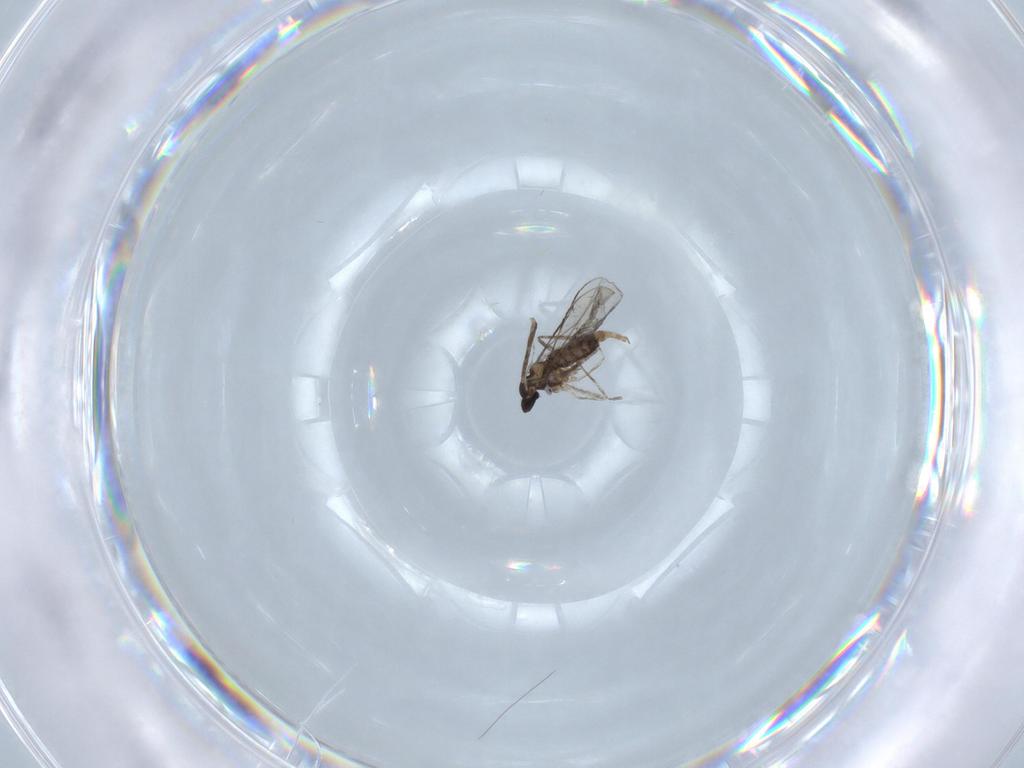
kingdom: Animalia
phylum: Arthropoda
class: Insecta
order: Diptera
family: Cecidomyiidae
